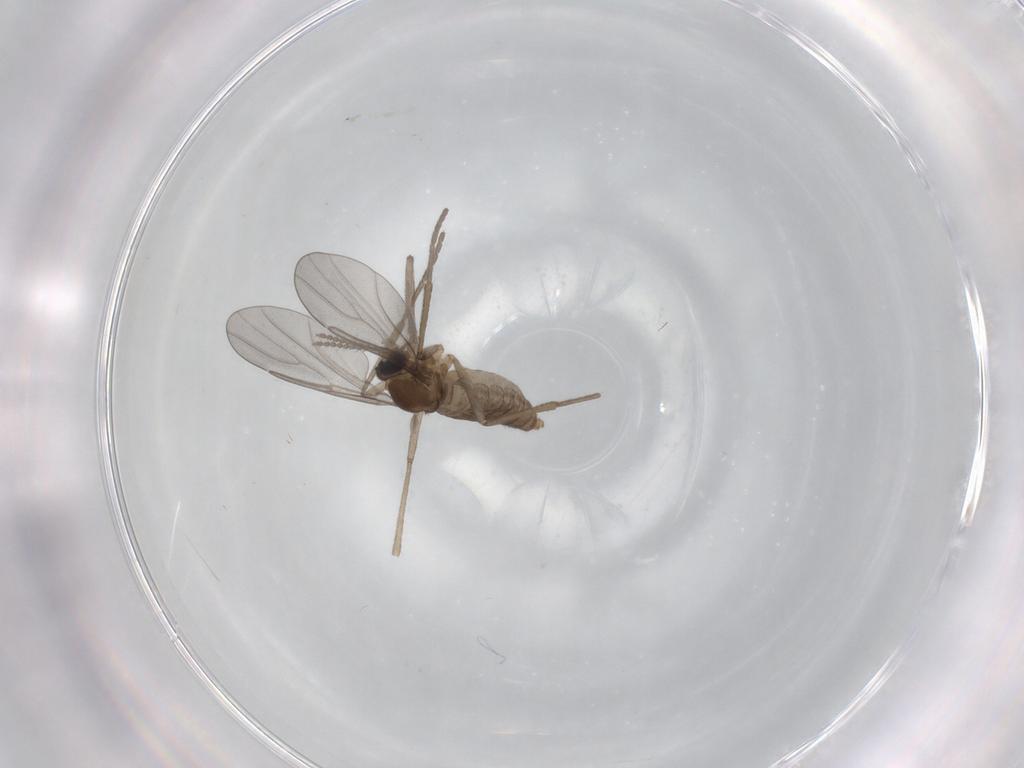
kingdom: Animalia
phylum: Arthropoda
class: Insecta
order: Diptera
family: Cecidomyiidae
